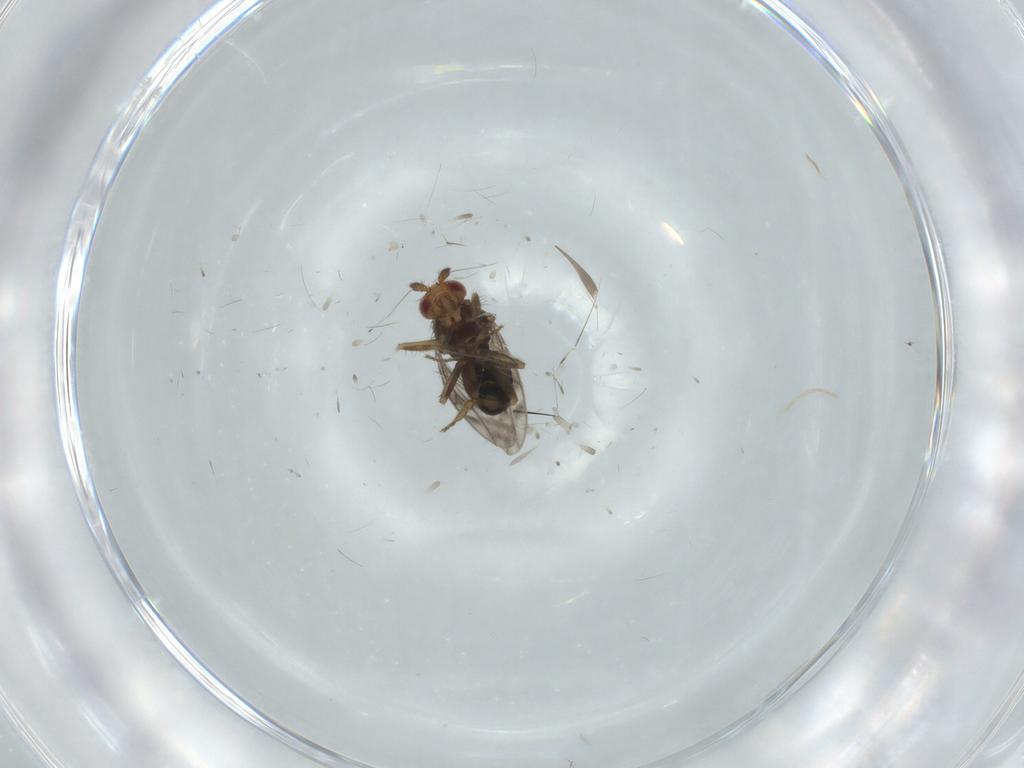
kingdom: Animalia
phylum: Arthropoda
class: Insecta
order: Diptera
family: Sphaeroceridae
